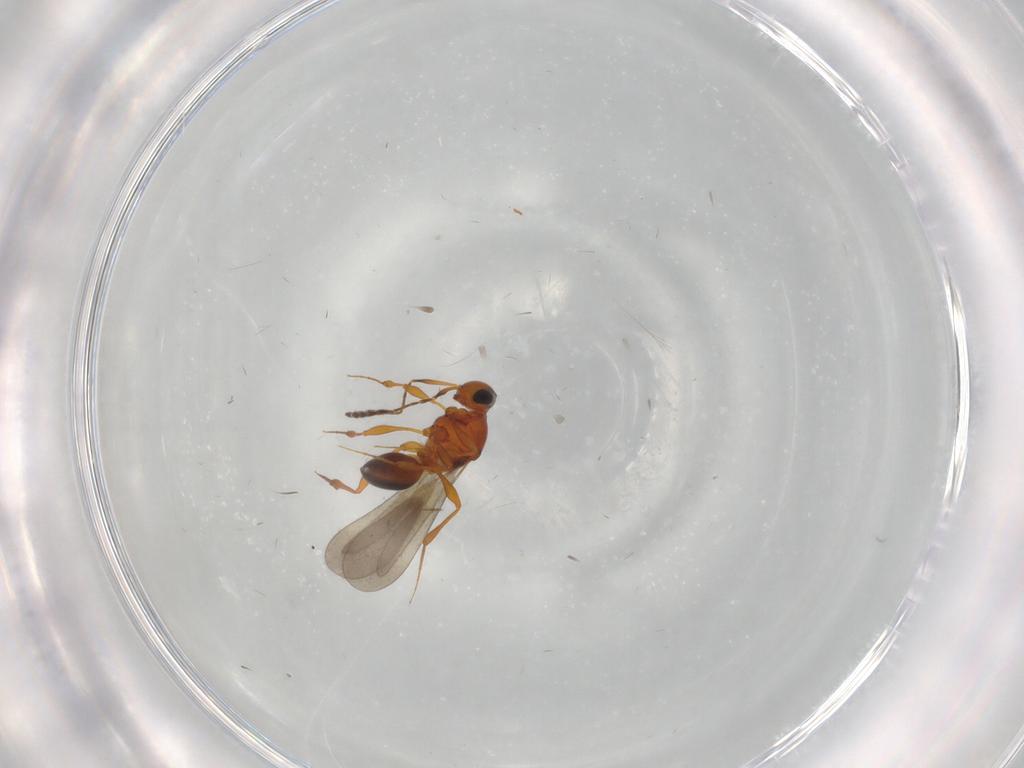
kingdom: Animalia
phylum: Arthropoda
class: Insecta
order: Hymenoptera
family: Platygastridae
